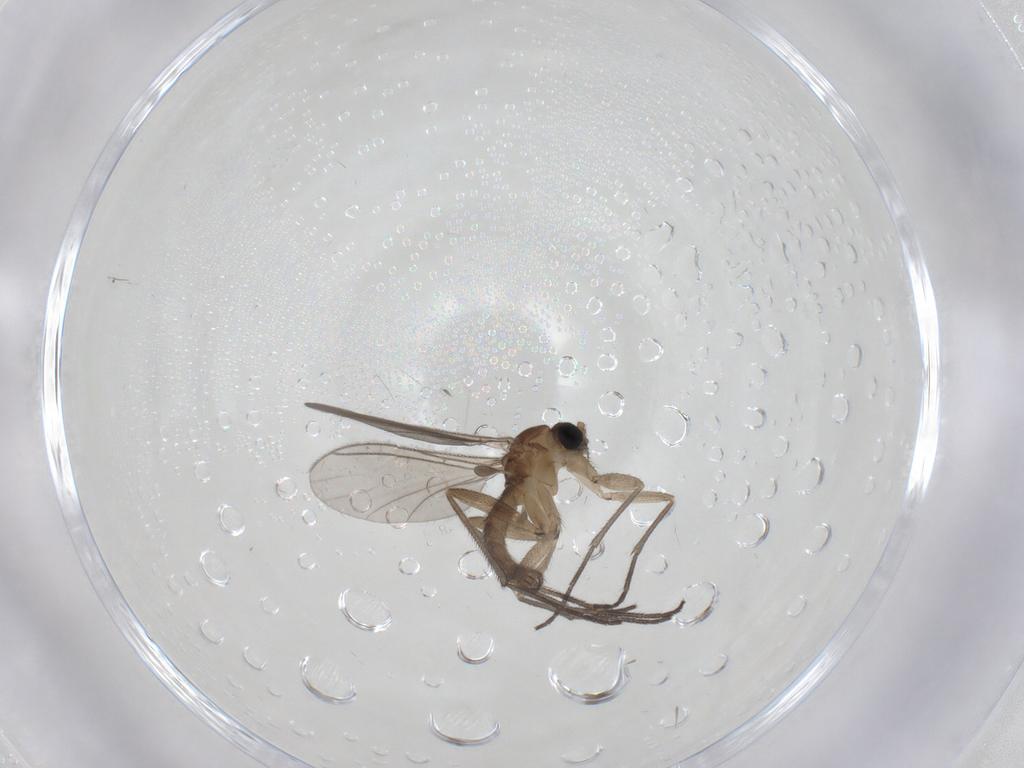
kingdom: Animalia
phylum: Arthropoda
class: Insecta
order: Diptera
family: Sciaridae
